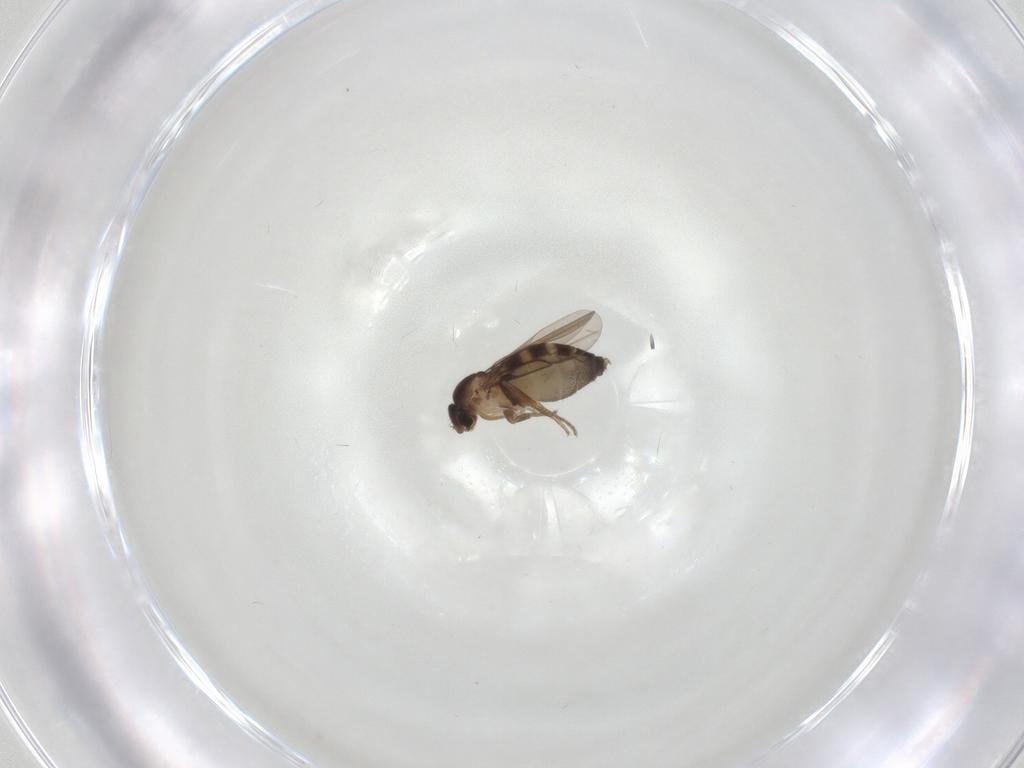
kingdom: Animalia
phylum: Arthropoda
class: Insecta
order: Diptera
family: Phoridae
